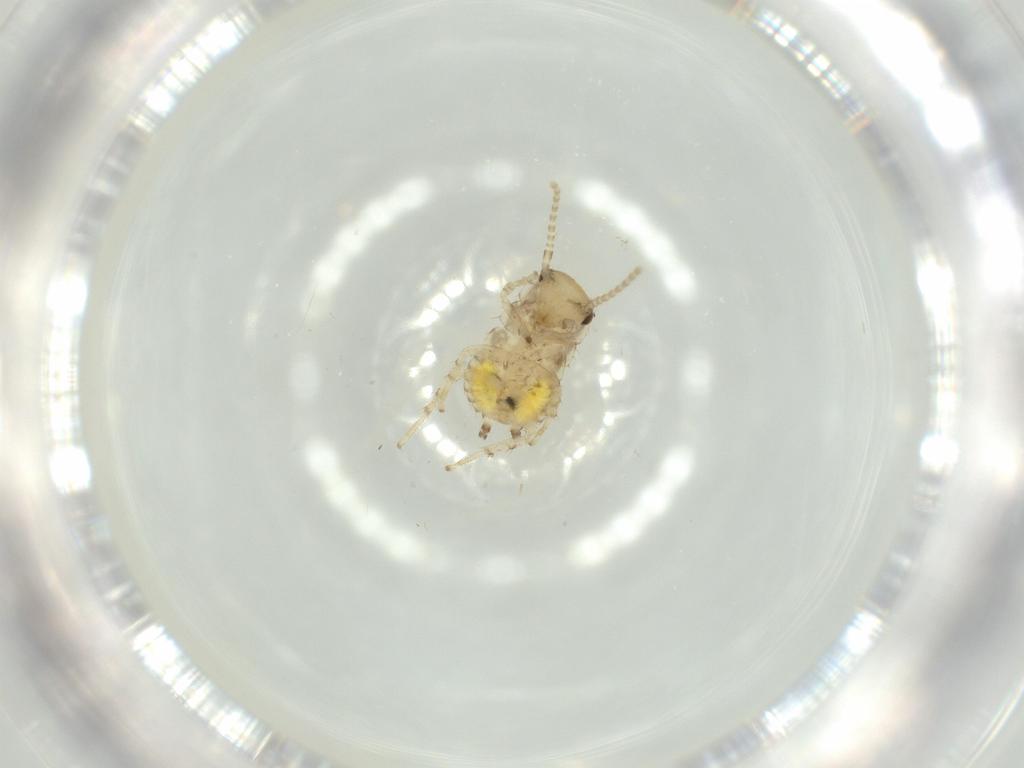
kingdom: Animalia
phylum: Arthropoda
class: Insecta
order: Blattodea
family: Ectobiidae
